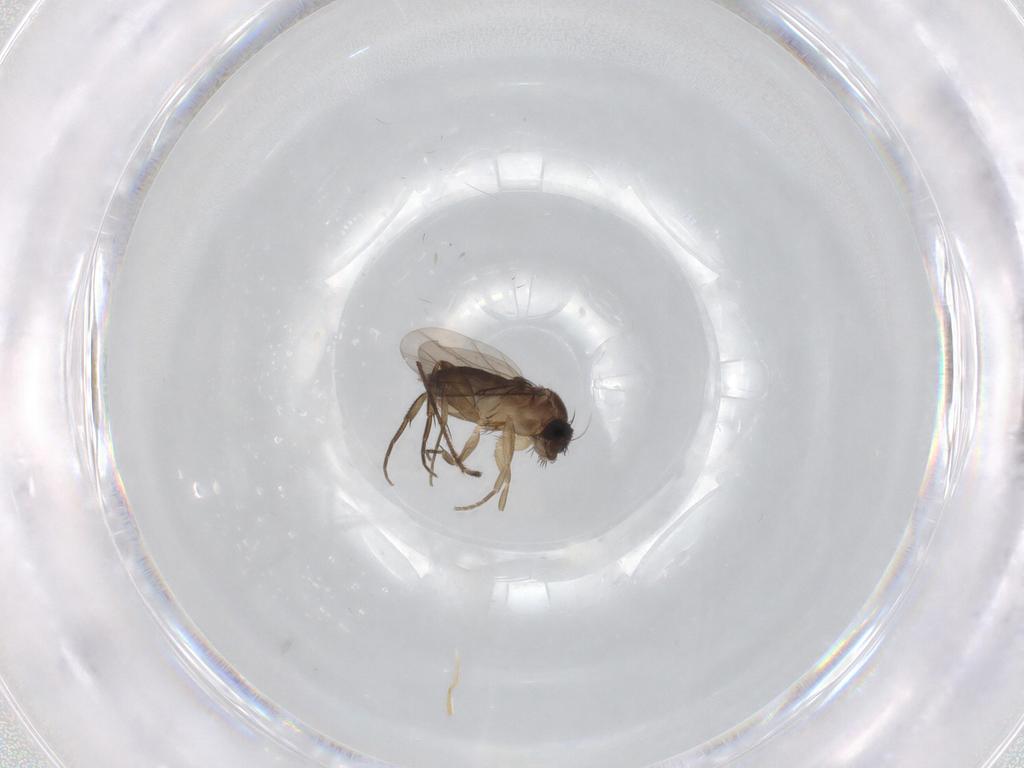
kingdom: Animalia
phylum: Arthropoda
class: Insecta
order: Diptera
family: Phoridae
